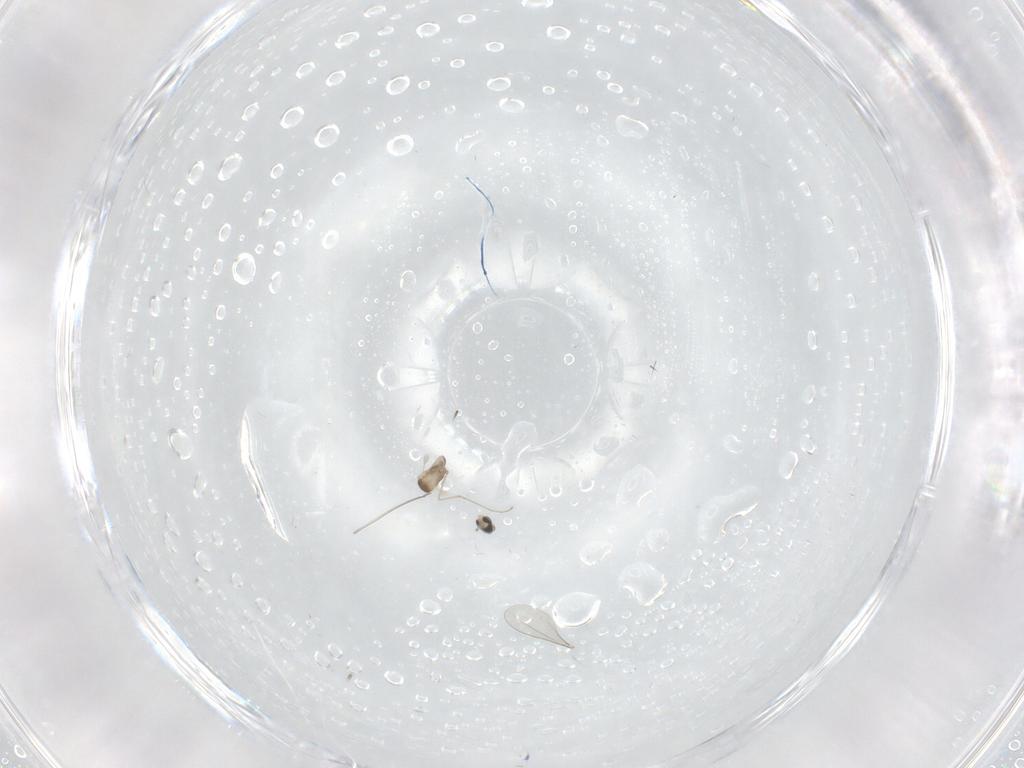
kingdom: Animalia
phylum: Arthropoda
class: Insecta
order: Diptera
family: Cecidomyiidae
